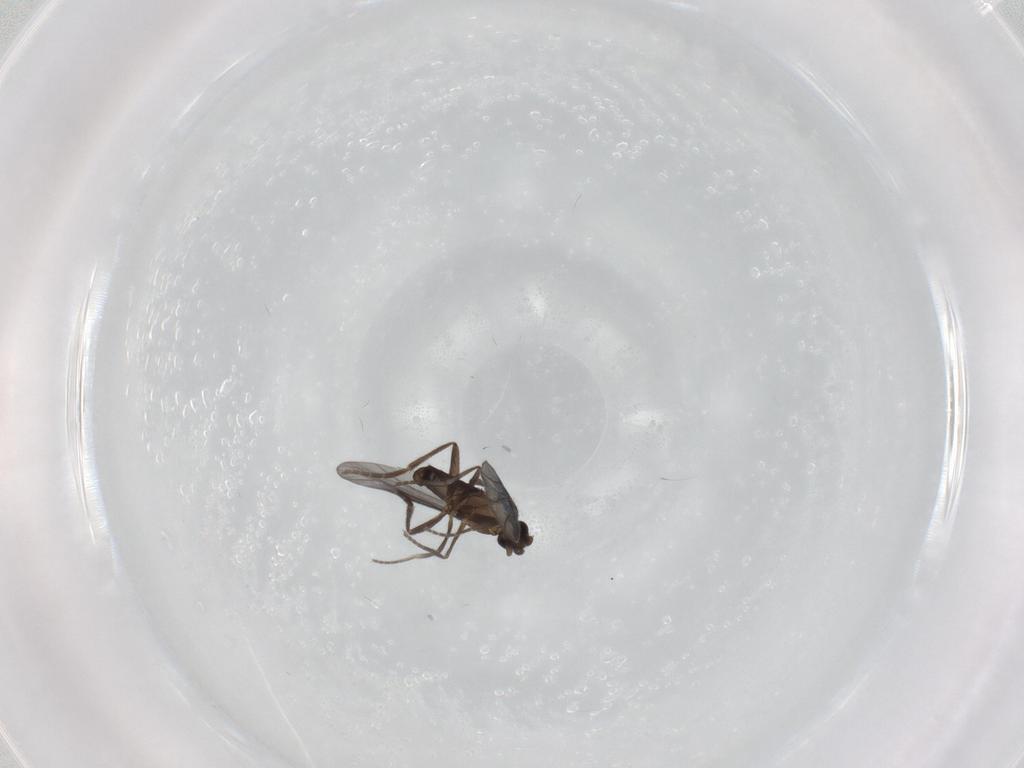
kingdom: Animalia
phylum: Arthropoda
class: Insecta
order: Diptera
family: Phoridae
